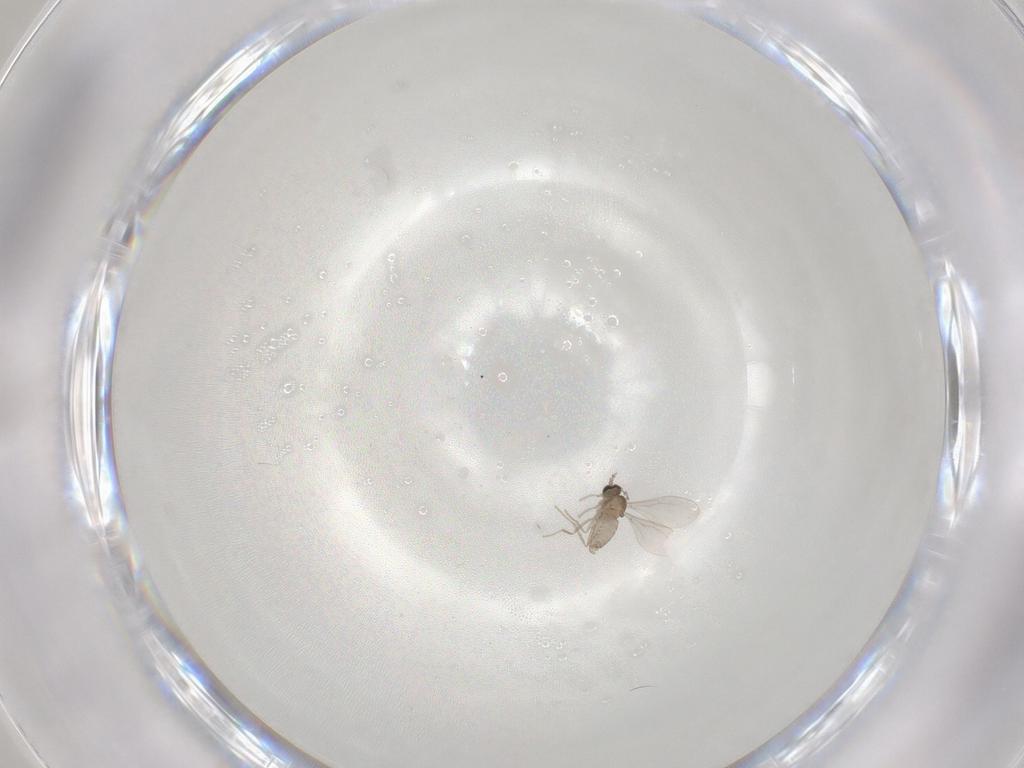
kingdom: Animalia
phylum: Arthropoda
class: Insecta
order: Diptera
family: Cecidomyiidae
